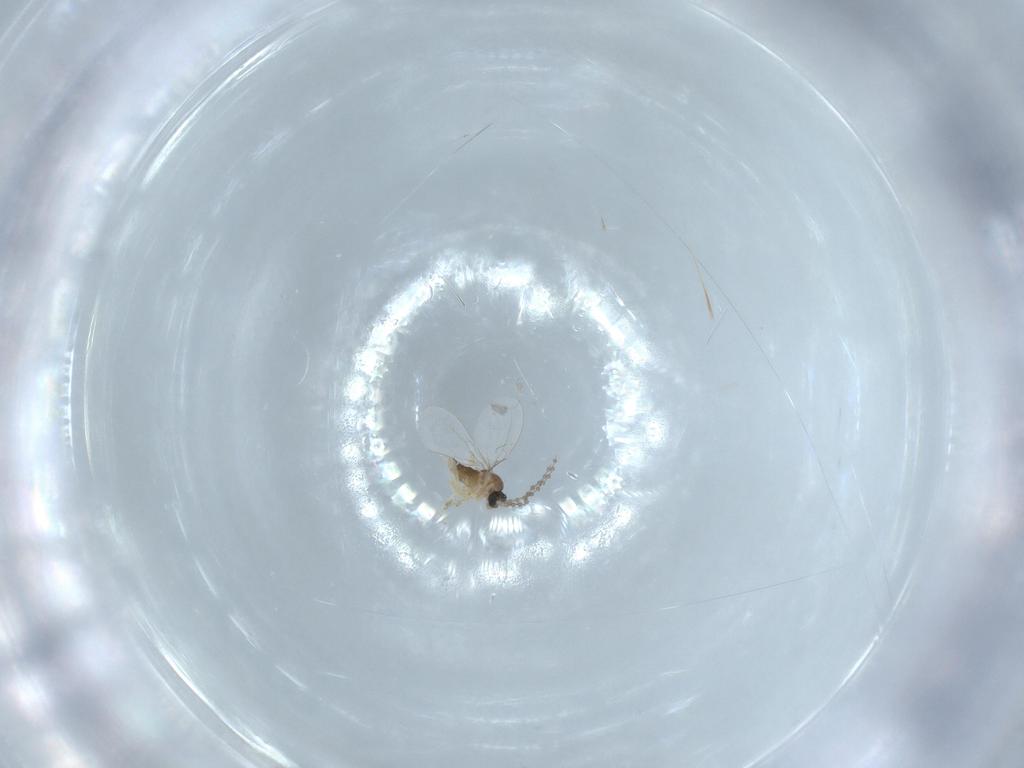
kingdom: Animalia
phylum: Arthropoda
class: Insecta
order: Diptera
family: Cecidomyiidae
